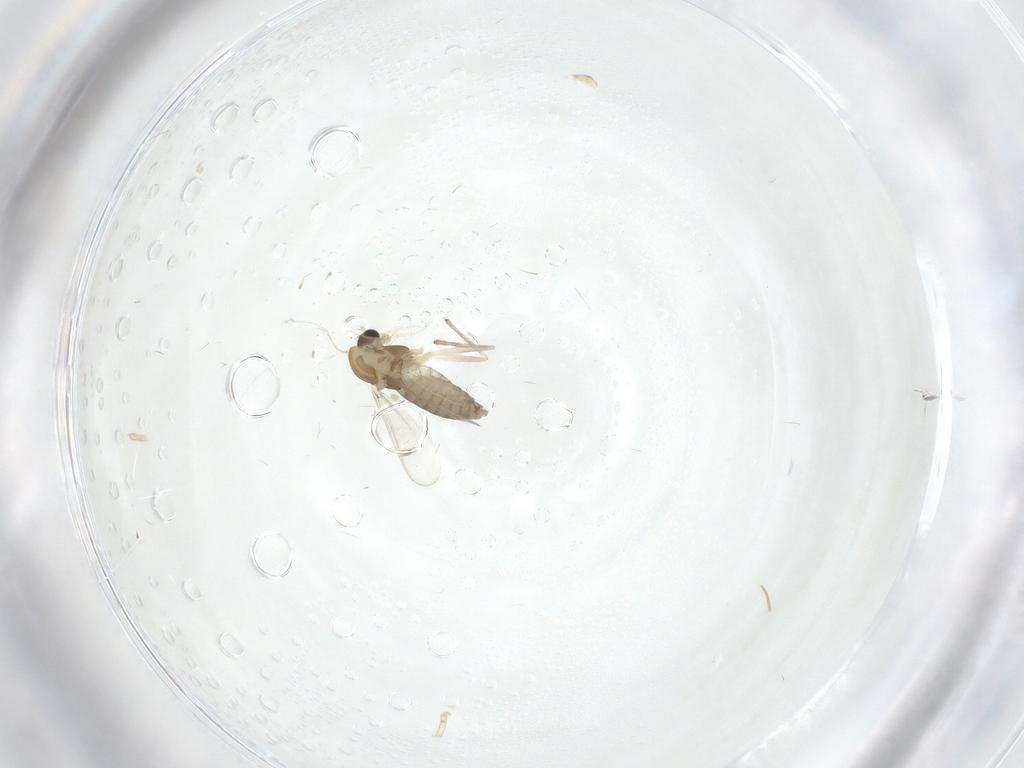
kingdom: Animalia
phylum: Arthropoda
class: Insecta
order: Diptera
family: Chironomidae
